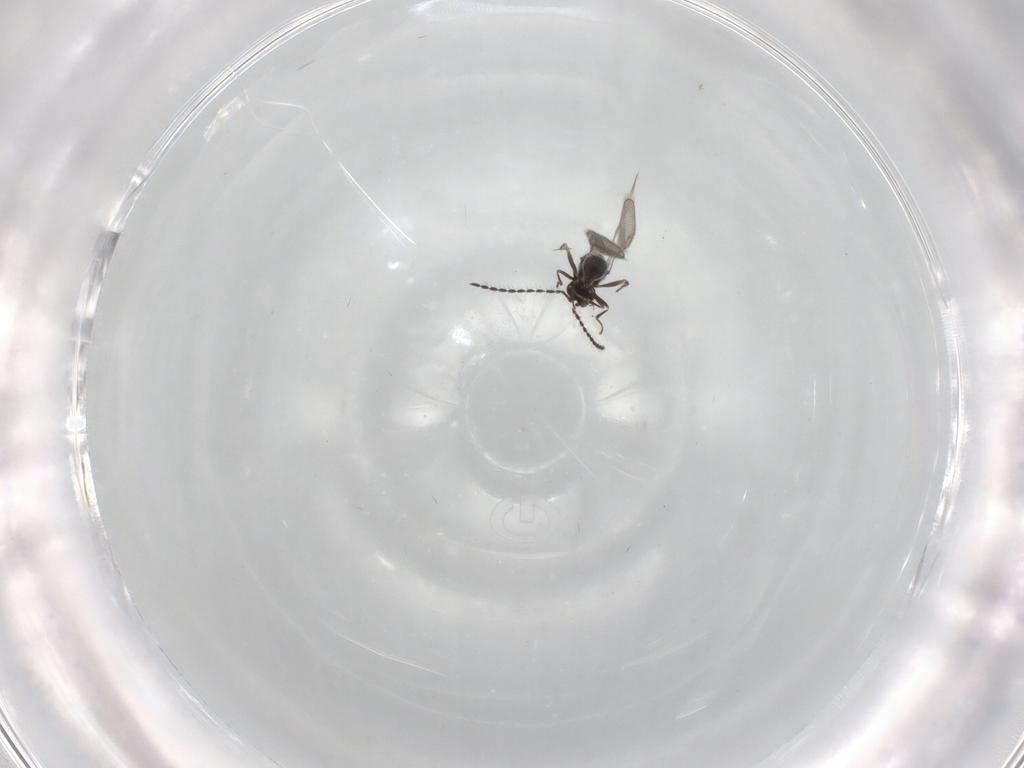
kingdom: Animalia
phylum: Arthropoda
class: Insecta
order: Hymenoptera
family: Ceraphronidae
